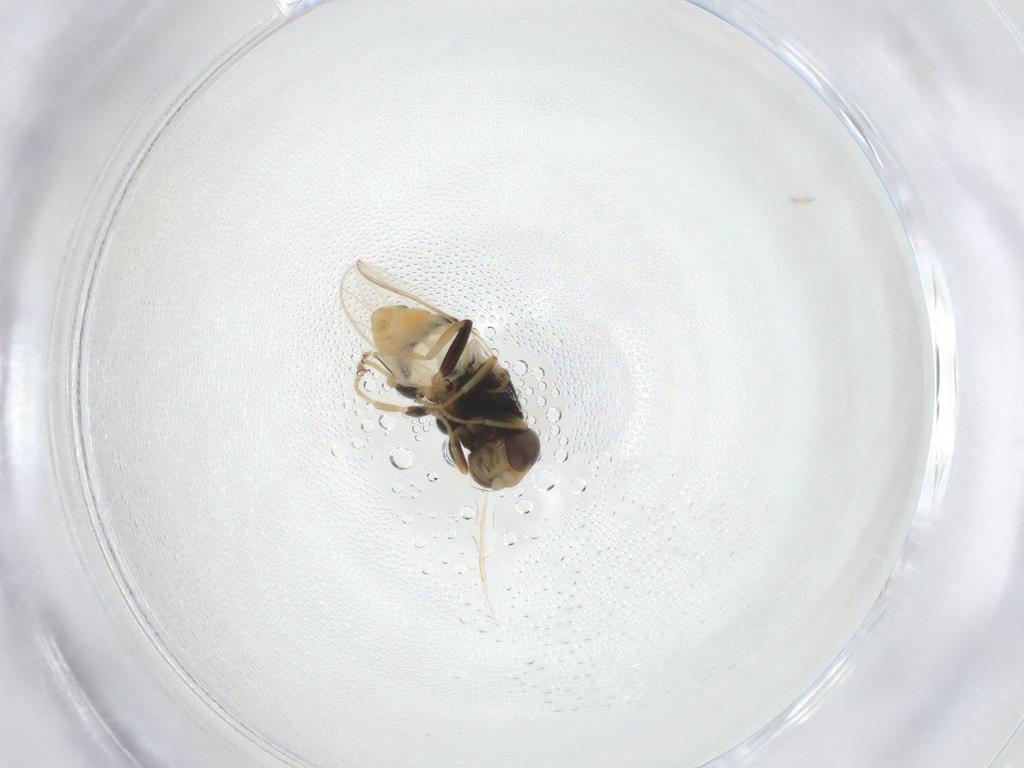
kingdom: Animalia
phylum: Arthropoda
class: Insecta
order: Diptera
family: Chloropidae
